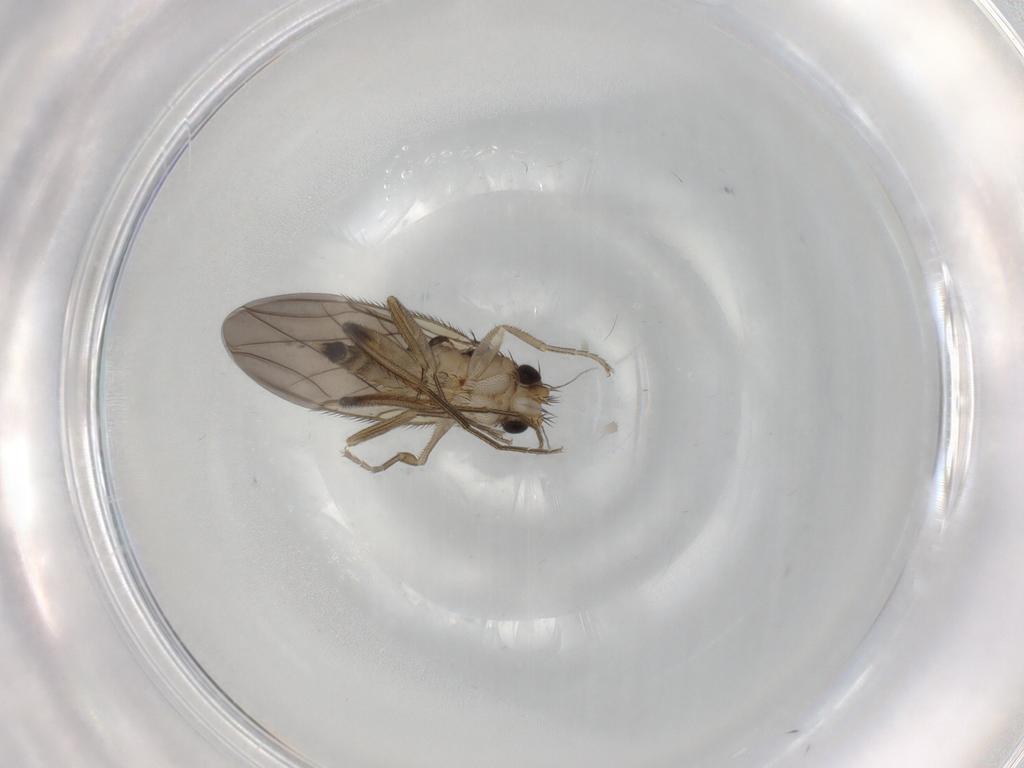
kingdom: Animalia
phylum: Arthropoda
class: Insecta
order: Diptera
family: Phoridae
